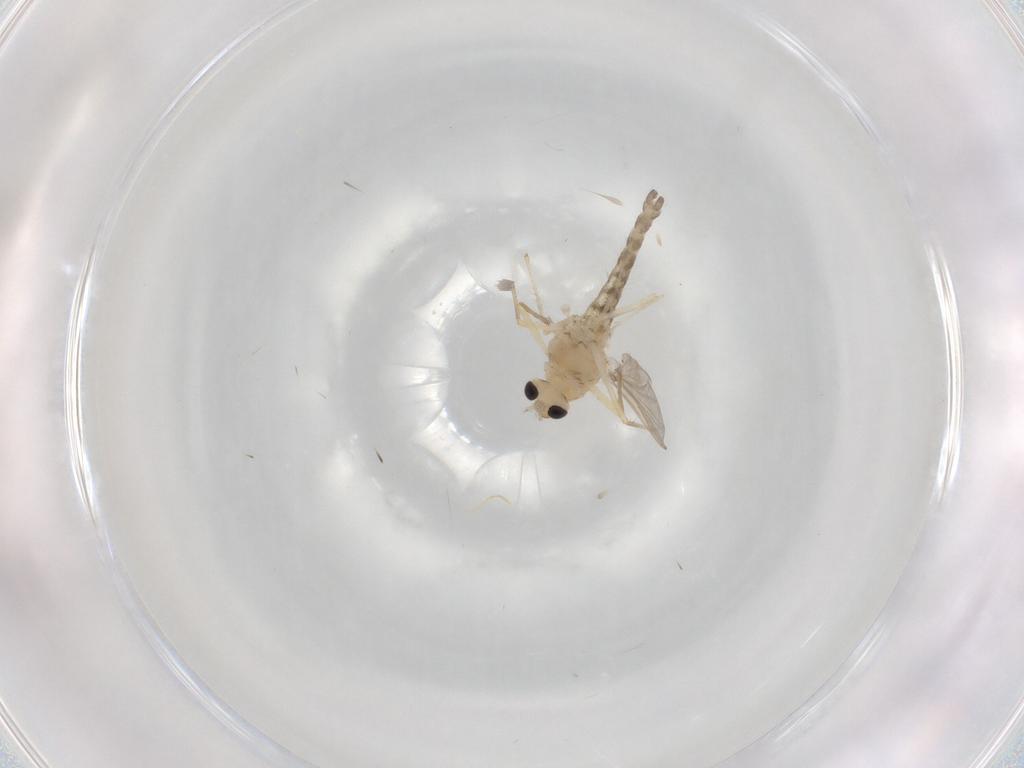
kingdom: Animalia
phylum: Arthropoda
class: Insecta
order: Diptera
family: Chironomidae
